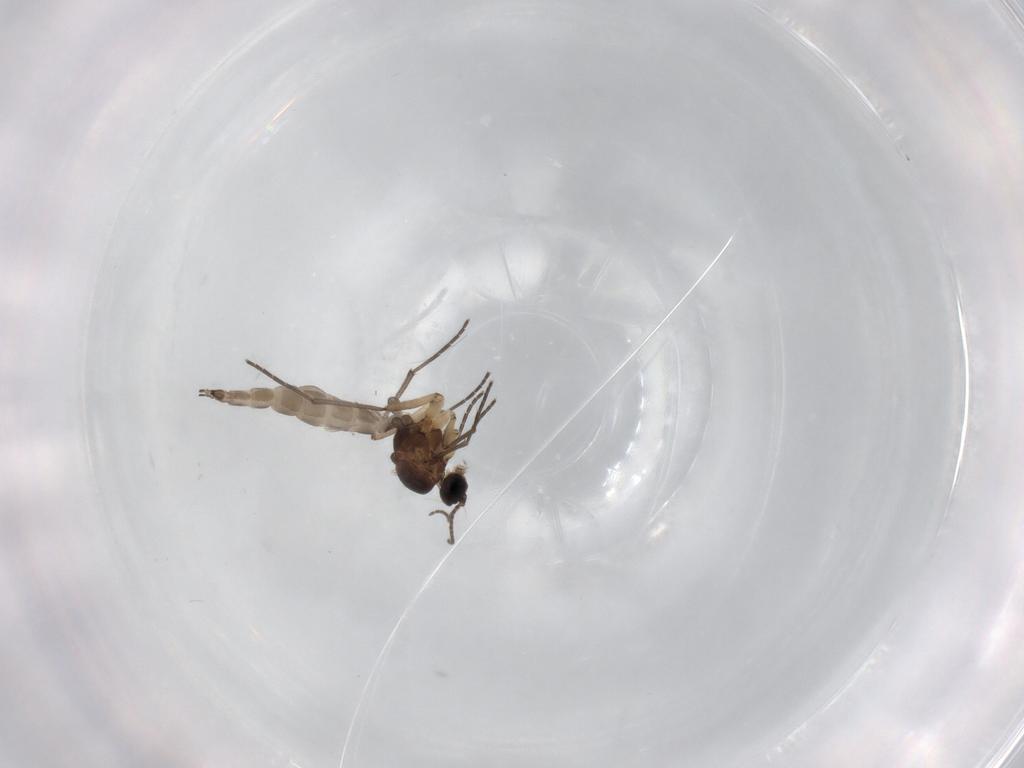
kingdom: Animalia
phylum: Arthropoda
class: Insecta
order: Diptera
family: Sciaridae
